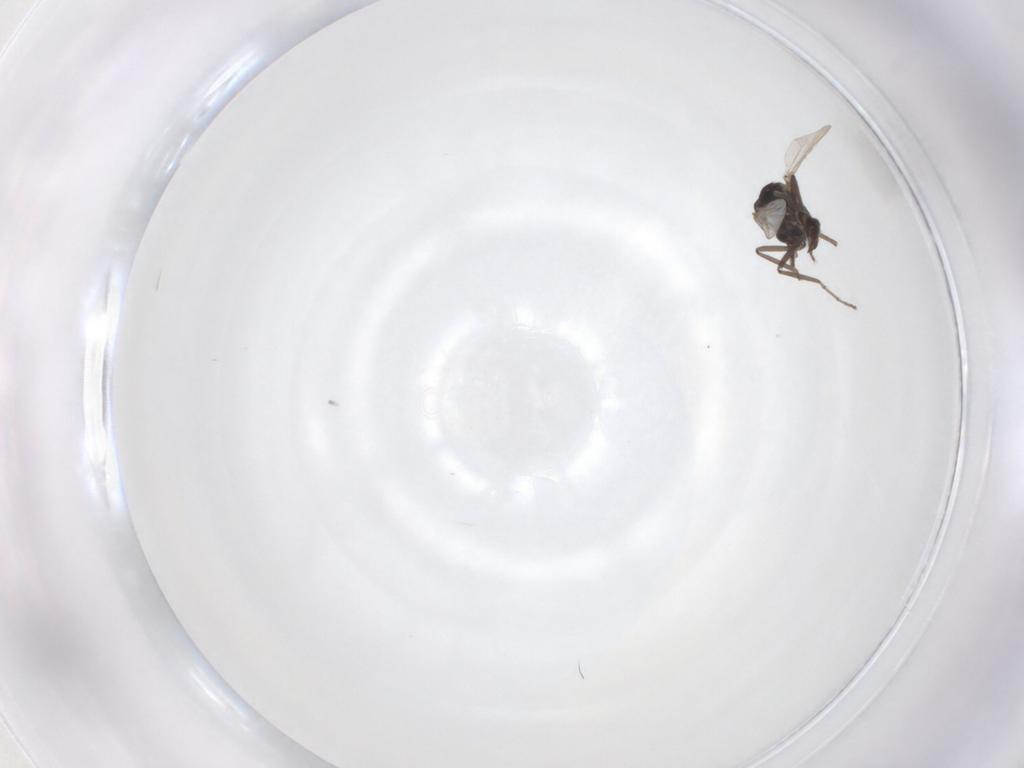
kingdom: Animalia
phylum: Arthropoda
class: Insecta
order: Diptera
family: Ceratopogonidae
